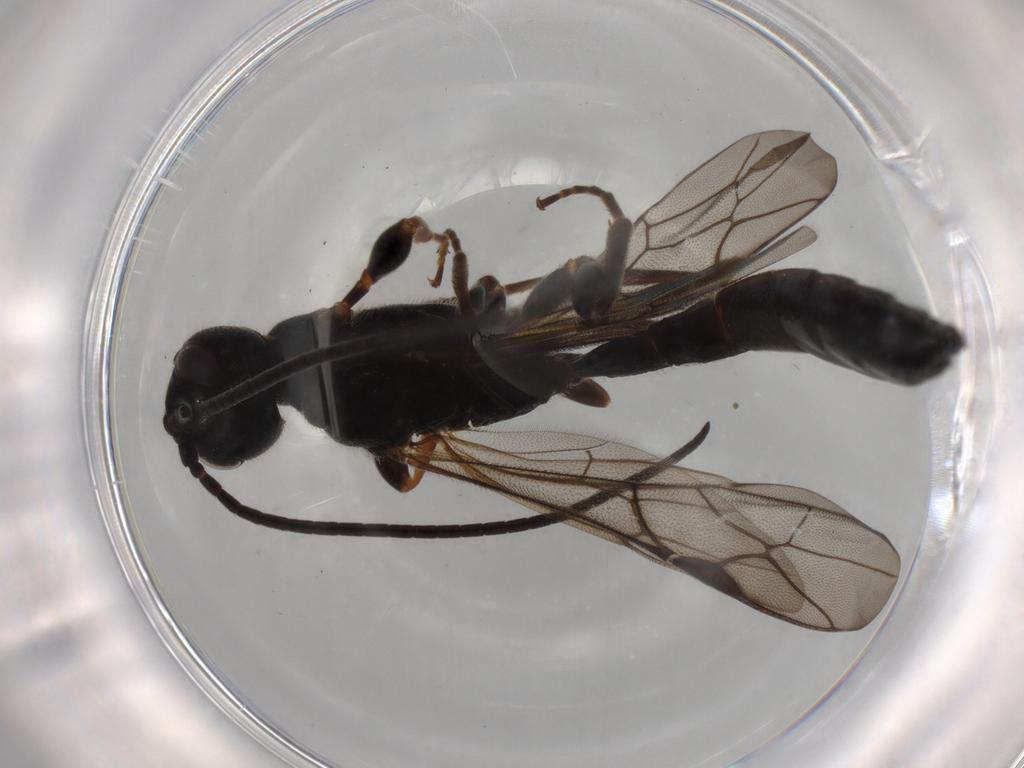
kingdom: Animalia
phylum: Arthropoda
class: Insecta
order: Hymenoptera
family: Ichneumonidae
